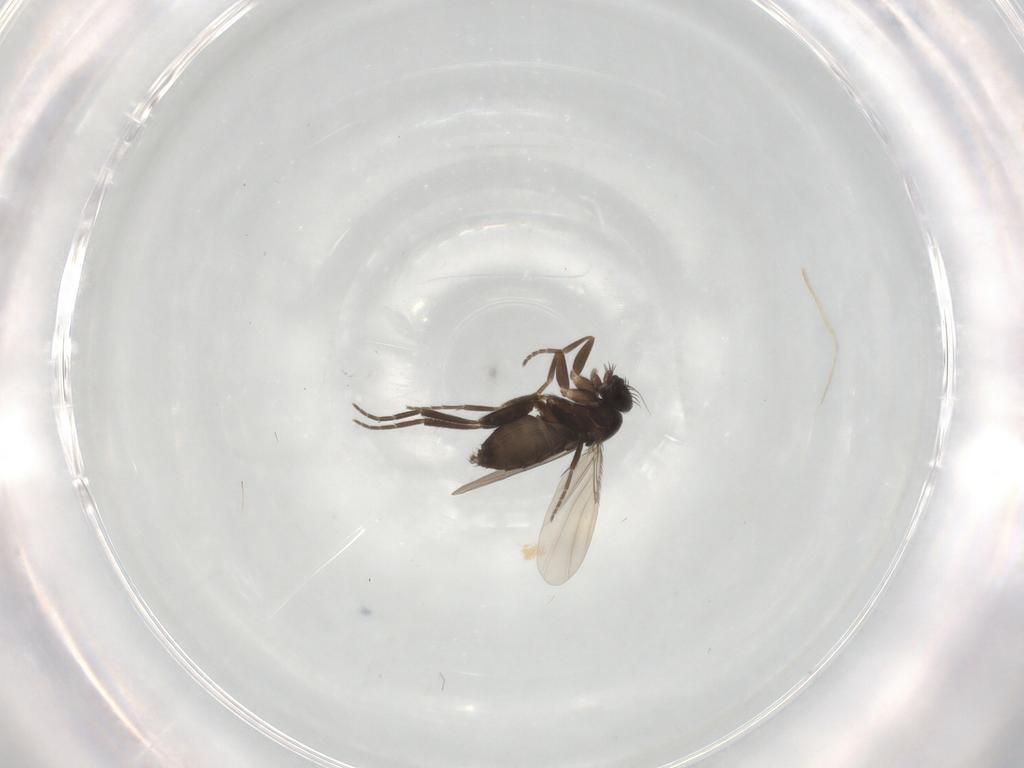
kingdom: Animalia
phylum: Arthropoda
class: Insecta
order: Diptera
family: Phoridae
